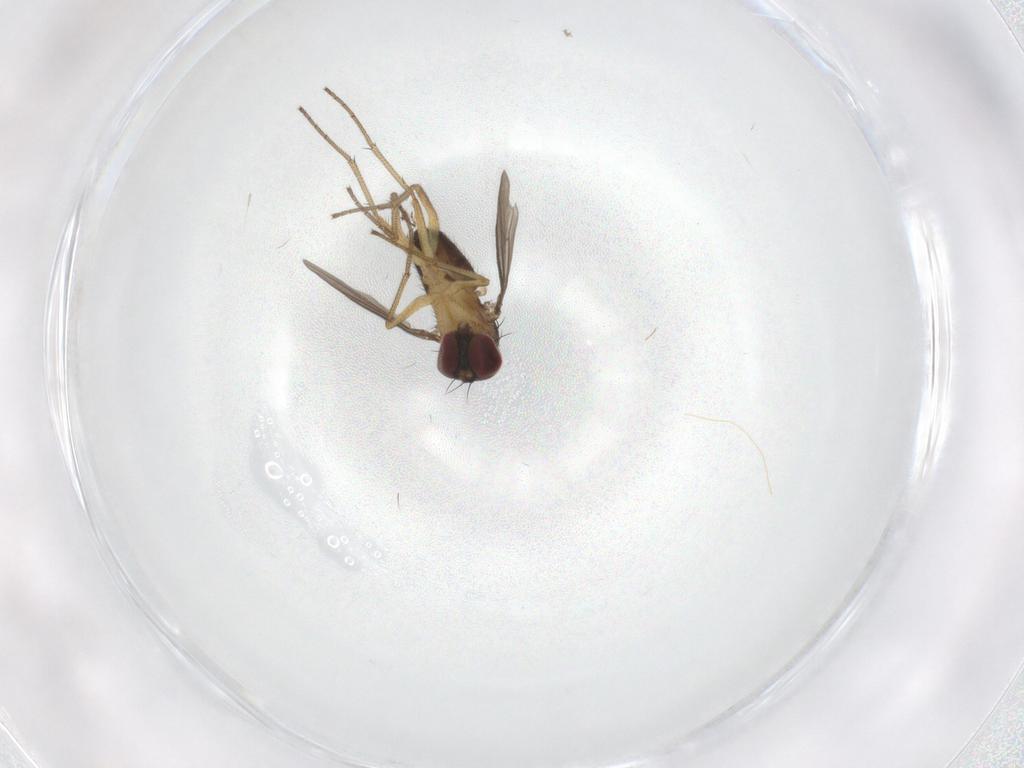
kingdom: Animalia
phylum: Arthropoda
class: Insecta
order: Diptera
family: Dolichopodidae
